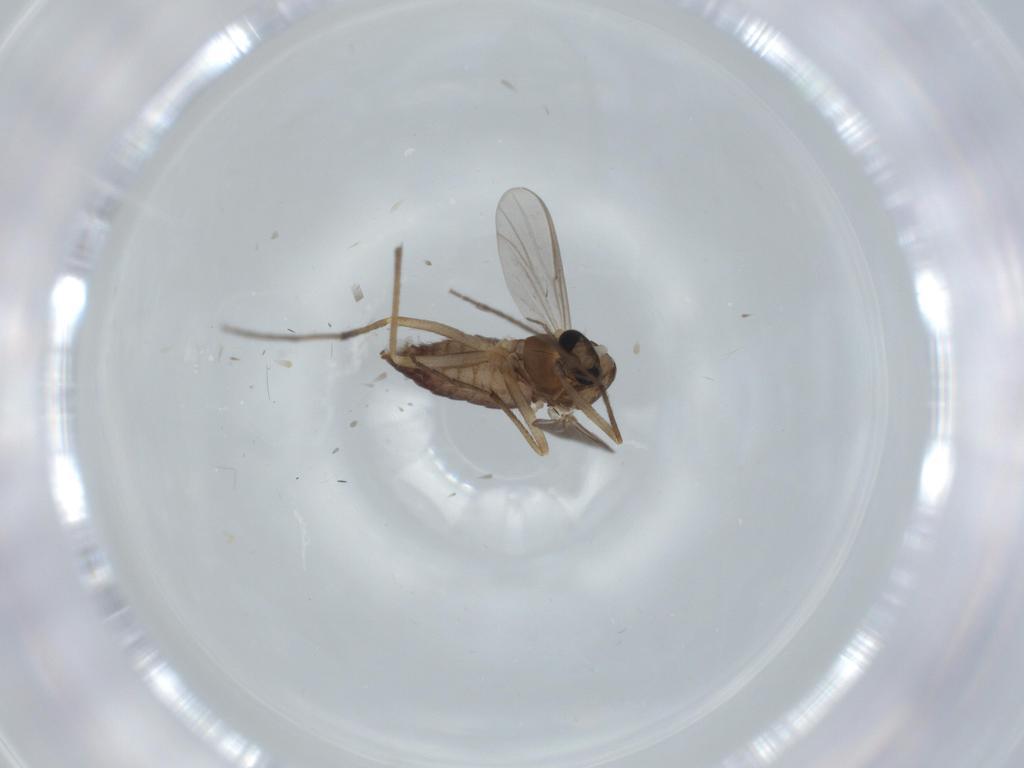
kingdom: Animalia
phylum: Arthropoda
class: Insecta
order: Diptera
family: Chironomidae
